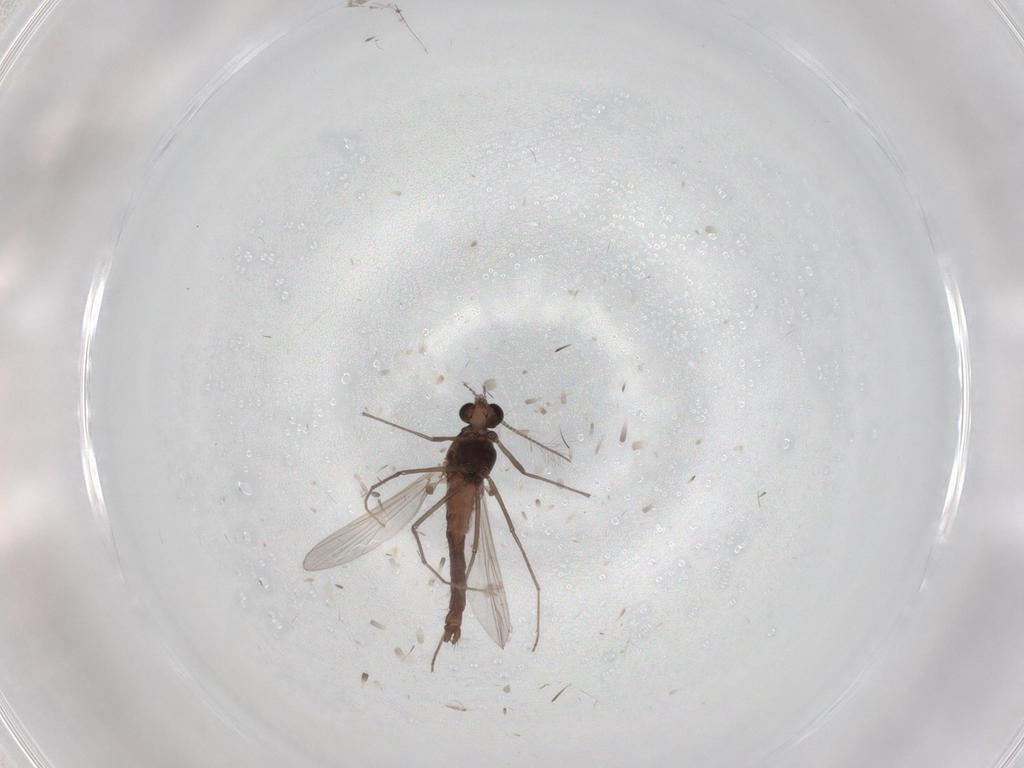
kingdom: Animalia
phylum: Arthropoda
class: Insecta
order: Diptera
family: Chironomidae
